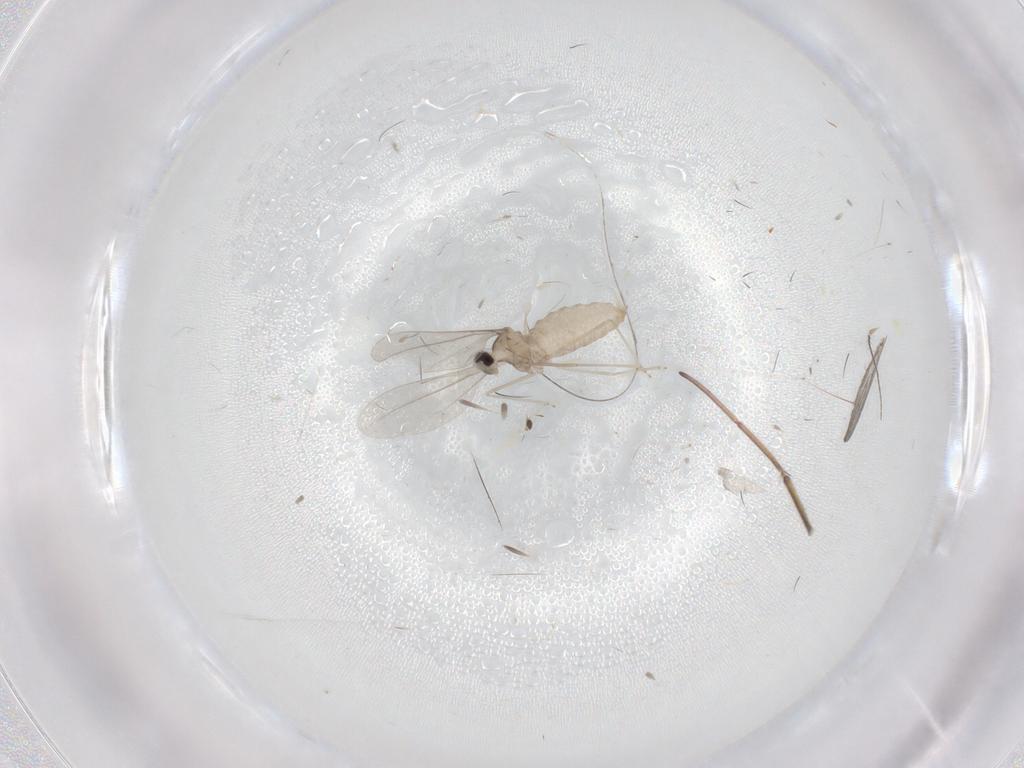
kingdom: Animalia
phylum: Arthropoda
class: Insecta
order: Diptera
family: Cecidomyiidae
